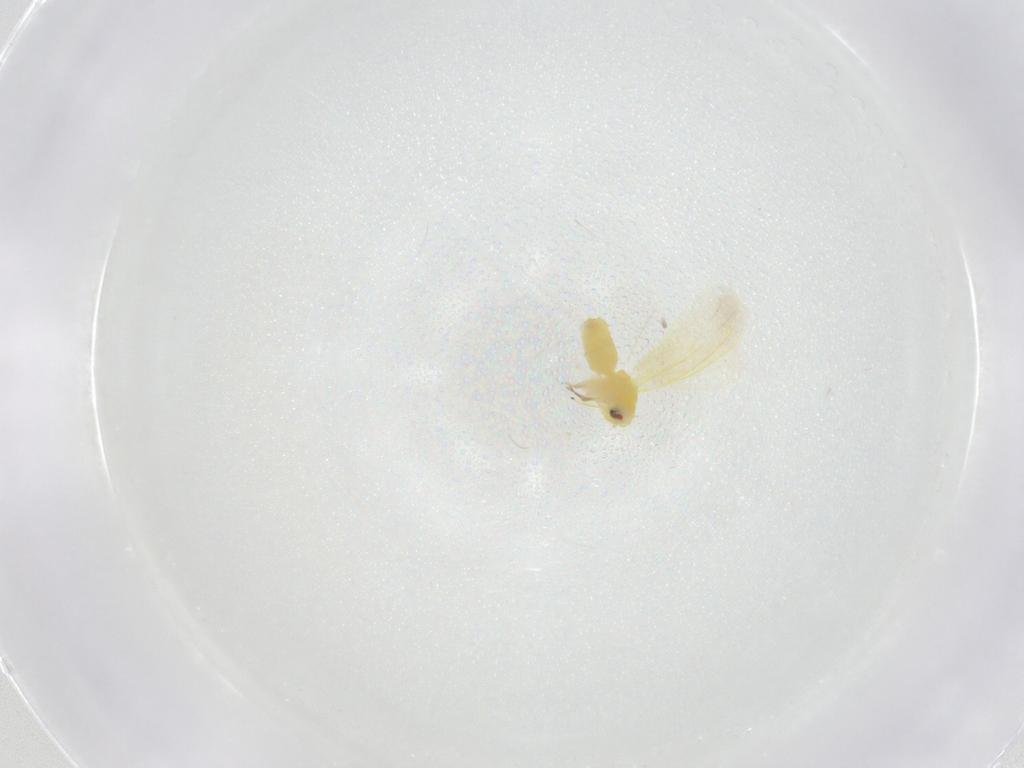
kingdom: Animalia
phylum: Arthropoda
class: Insecta
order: Hemiptera
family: Aleyrodidae
